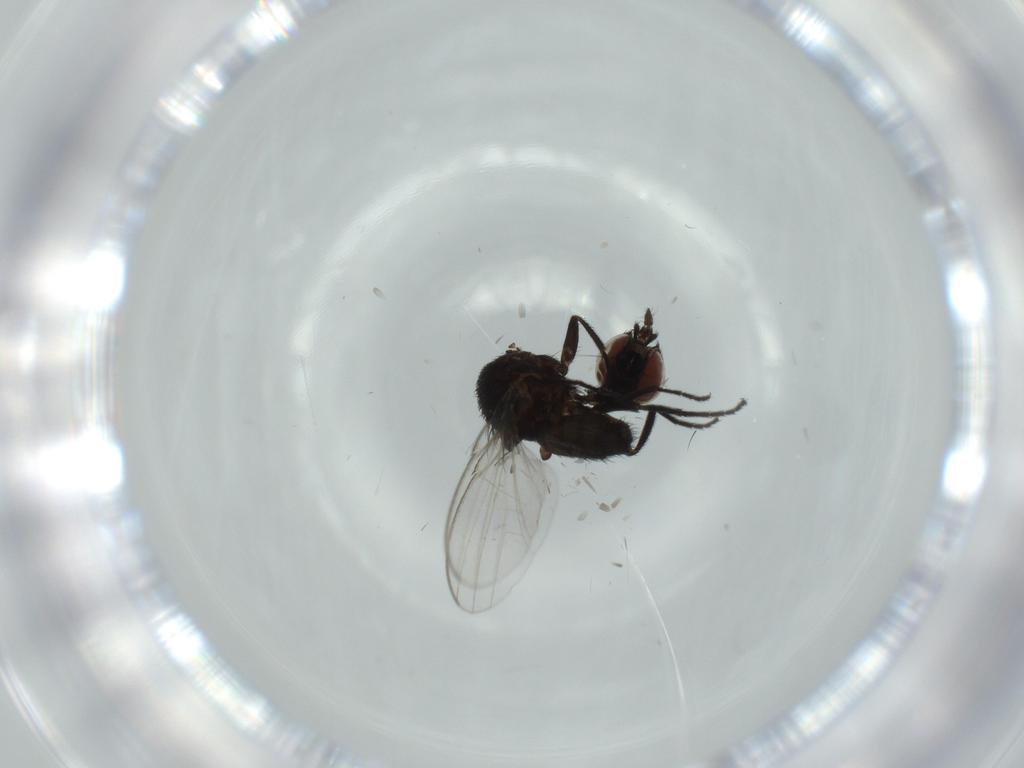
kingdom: Animalia
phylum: Arthropoda
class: Insecta
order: Diptera
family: Milichiidae
